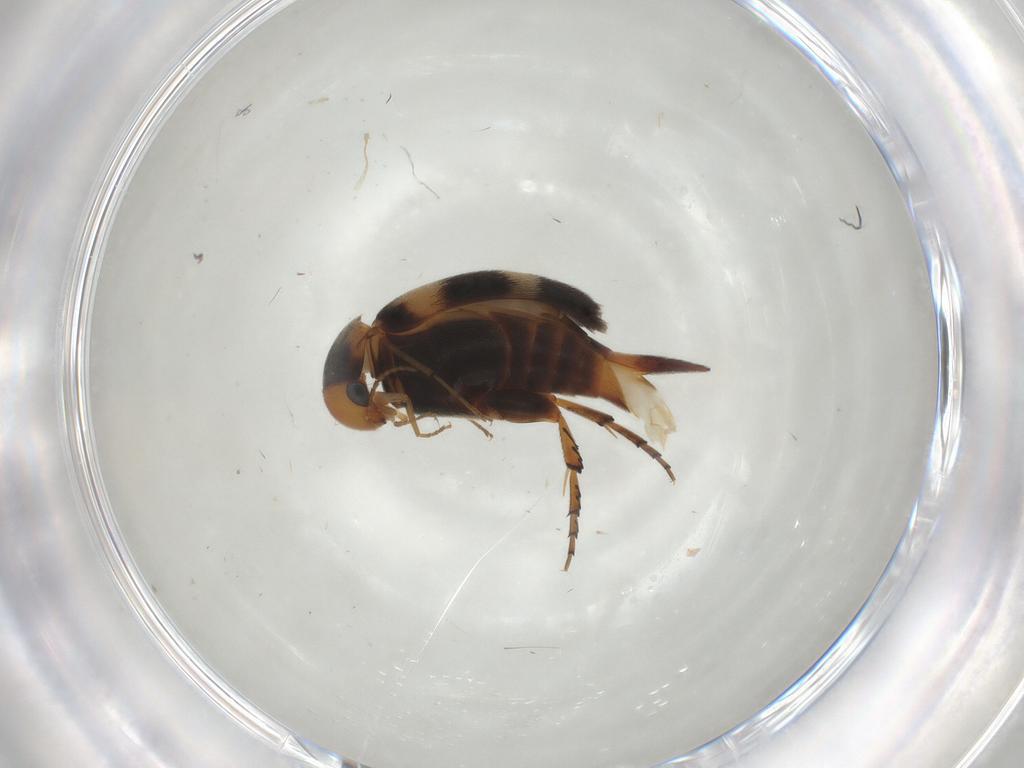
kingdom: Animalia
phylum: Arthropoda
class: Insecta
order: Coleoptera
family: Mordellidae
